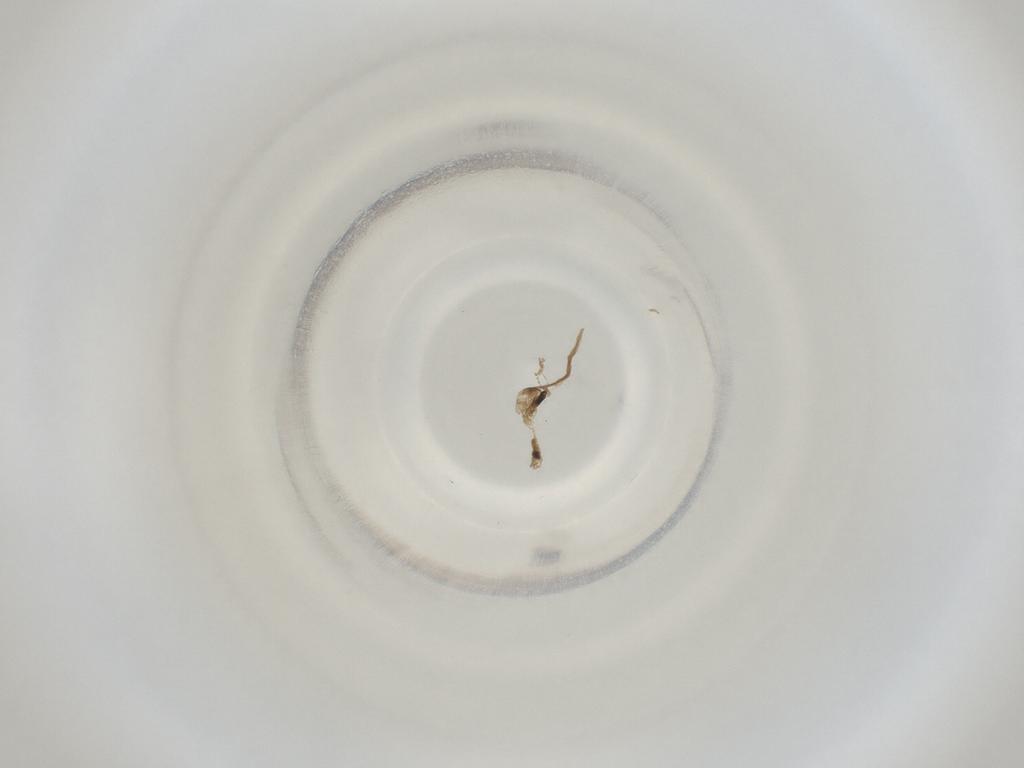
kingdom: Animalia
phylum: Arthropoda
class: Insecta
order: Diptera
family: Cecidomyiidae
